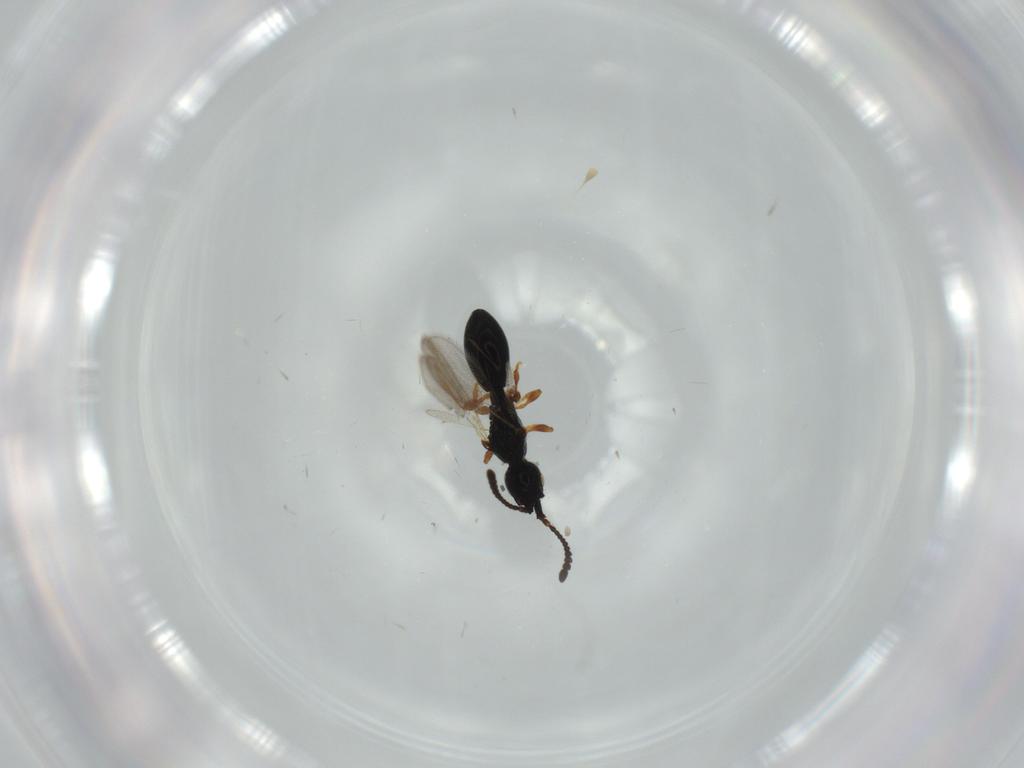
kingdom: Animalia
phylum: Arthropoda
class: Insecta
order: Hymenoptera
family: Diapriidae
